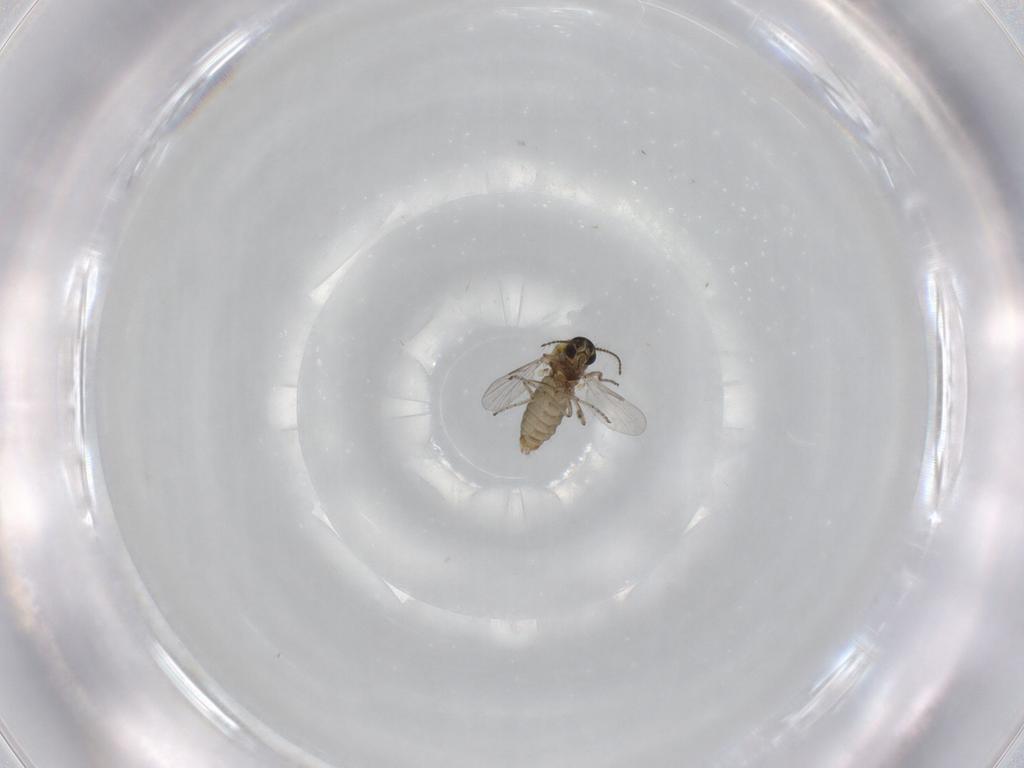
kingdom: Animalia
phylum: Arthropoda
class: Insecta
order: Diptera
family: Ceratopogonidae
